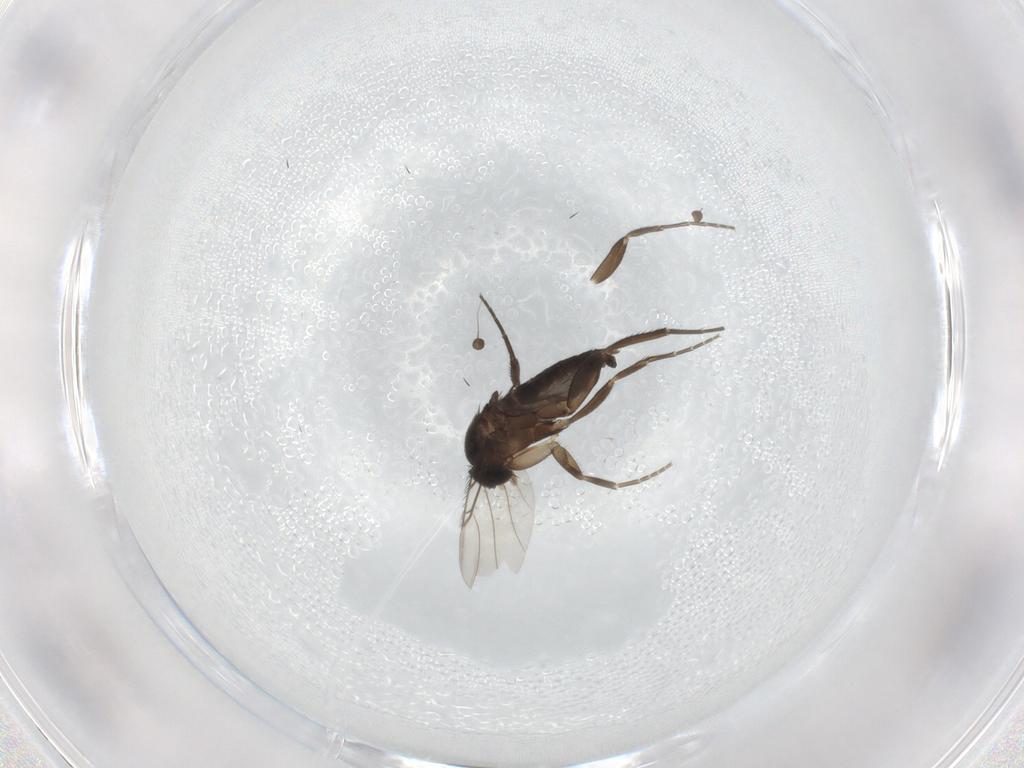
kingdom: Animalia
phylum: Arthropoda
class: Insecta
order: Diptera
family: Phoridae
